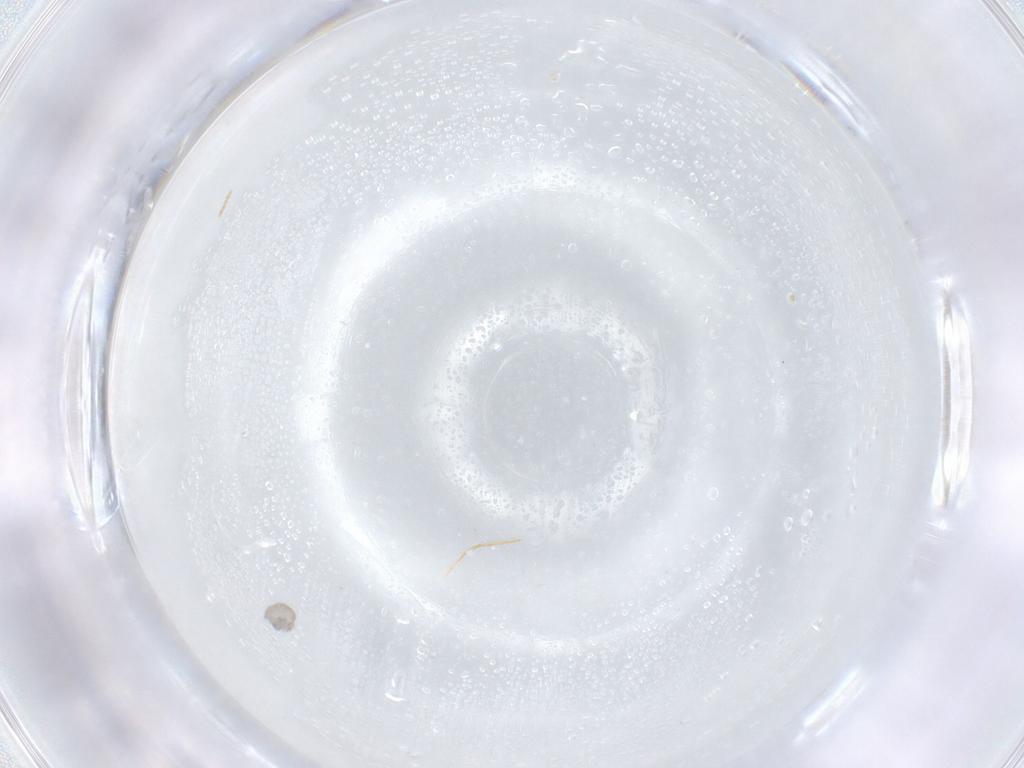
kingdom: Animalia
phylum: Arthropoda
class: Insecta
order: Diptera
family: Cecidomyiidae
